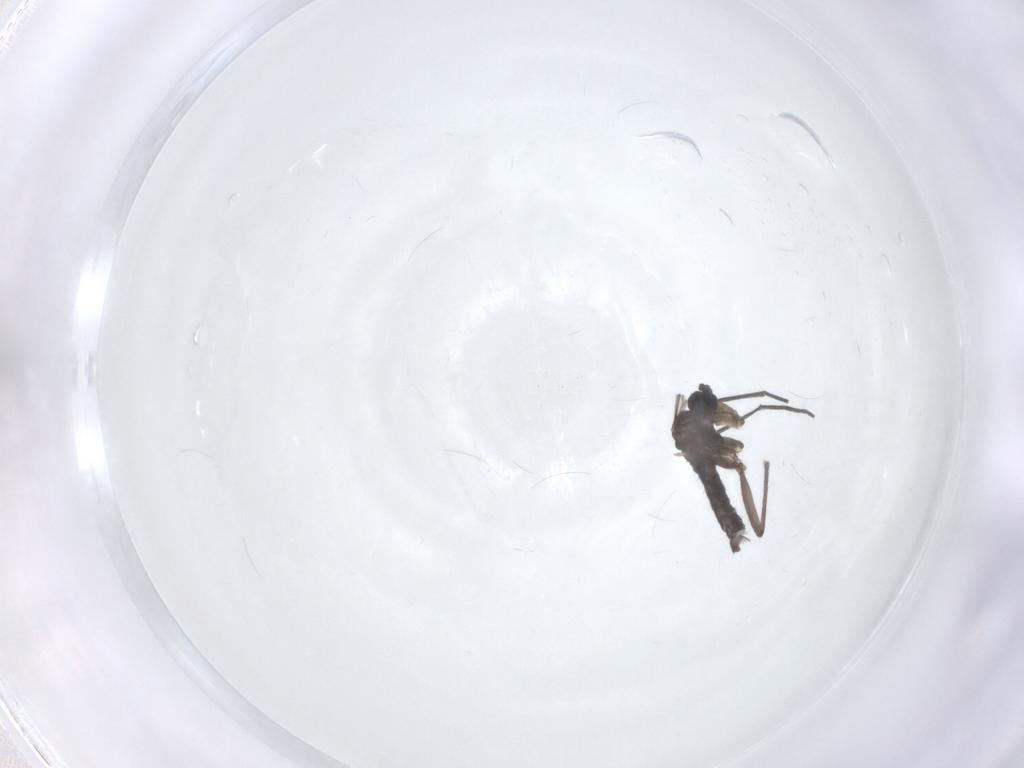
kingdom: Animalia
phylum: Arthropoda
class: Insecta
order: Diptera
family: Sciaridae
